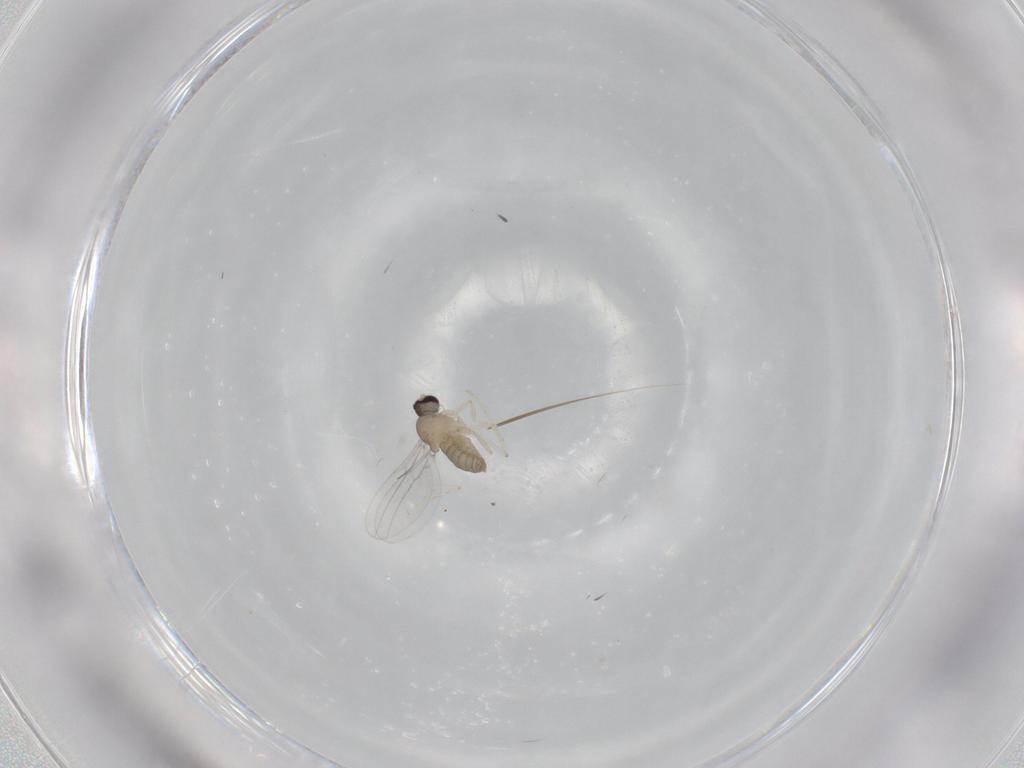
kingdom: Animalia
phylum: Arthropoda
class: Insecta
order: Diptera
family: Cecidomyiidae
